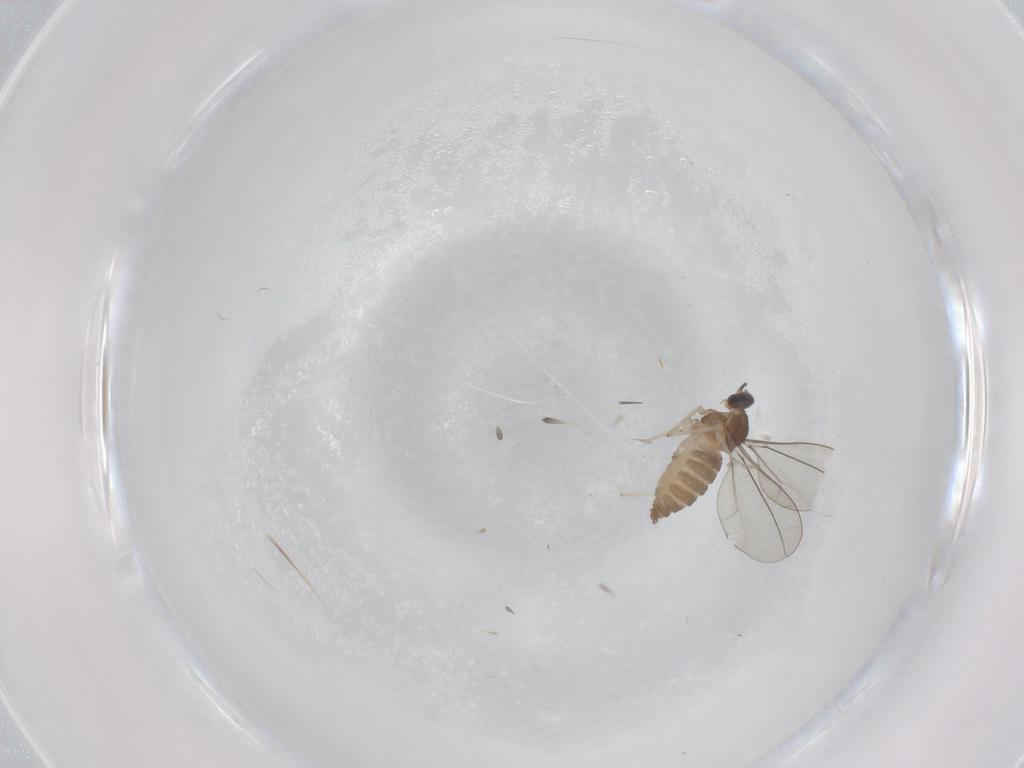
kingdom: Animalia
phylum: Arthropoda
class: Insecta
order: Diptera
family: Cecidomyiidae
